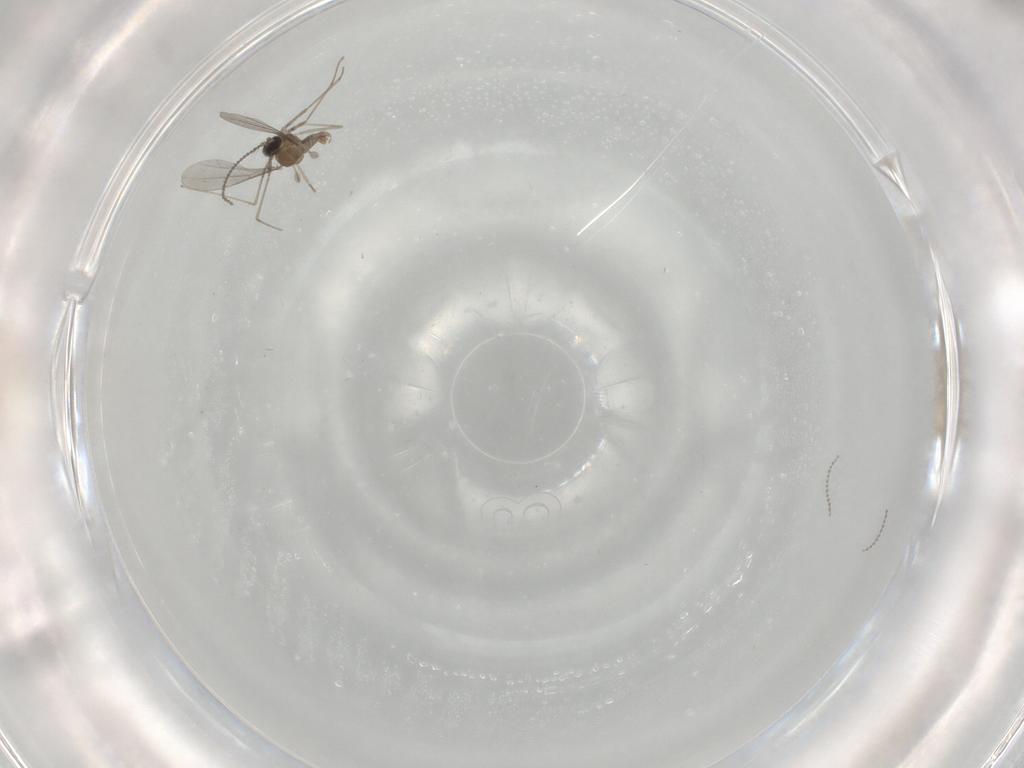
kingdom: Animalia
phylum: Arthropoda
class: Insecta
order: Diptera
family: Cecidomyiidae
